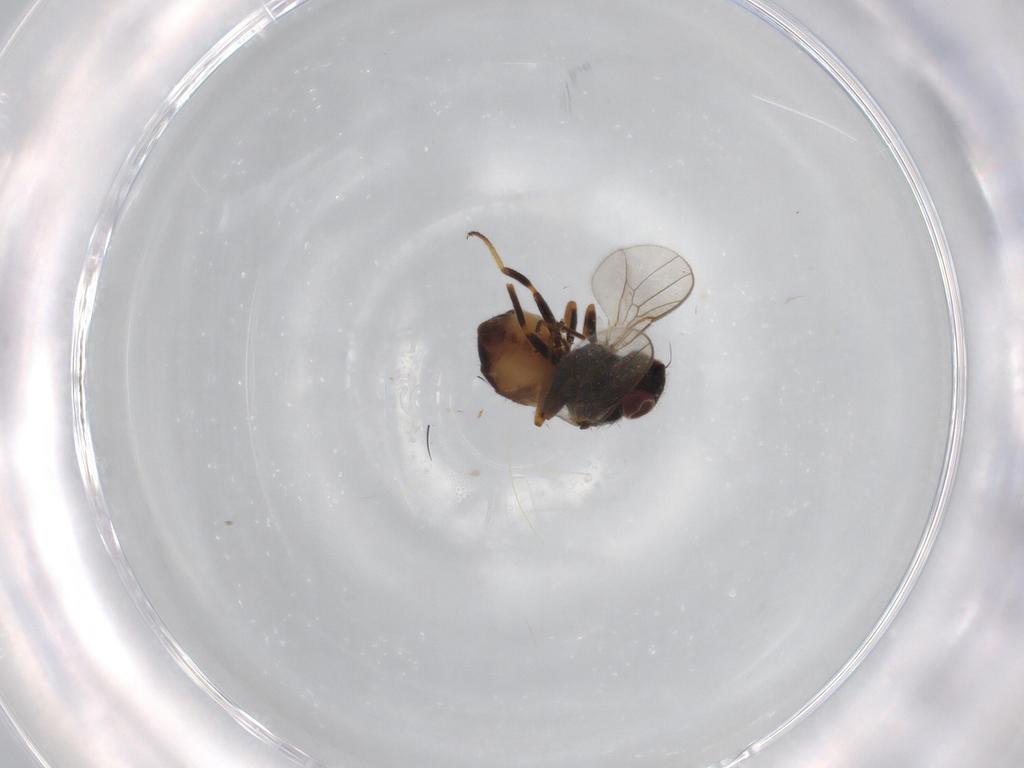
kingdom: Animalia
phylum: Arthropoda
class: Insecta
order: Diptera
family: Chloropidae
